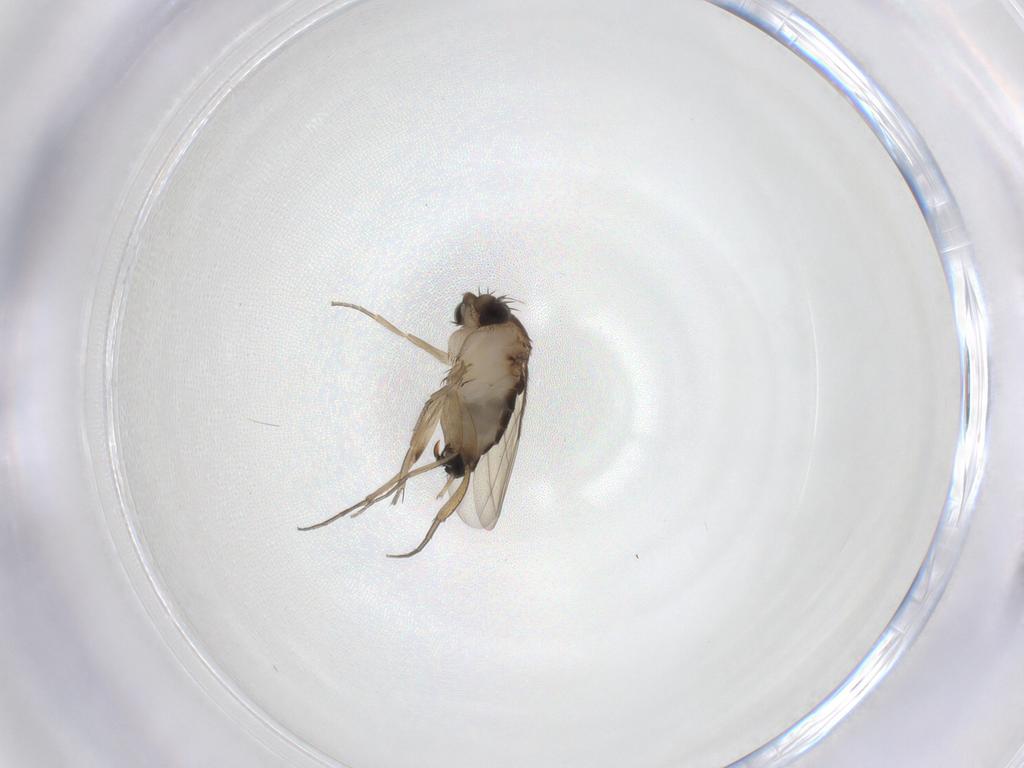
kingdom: Animalia
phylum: Arthropoda
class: Insecta
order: Diptera
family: Phoridae
